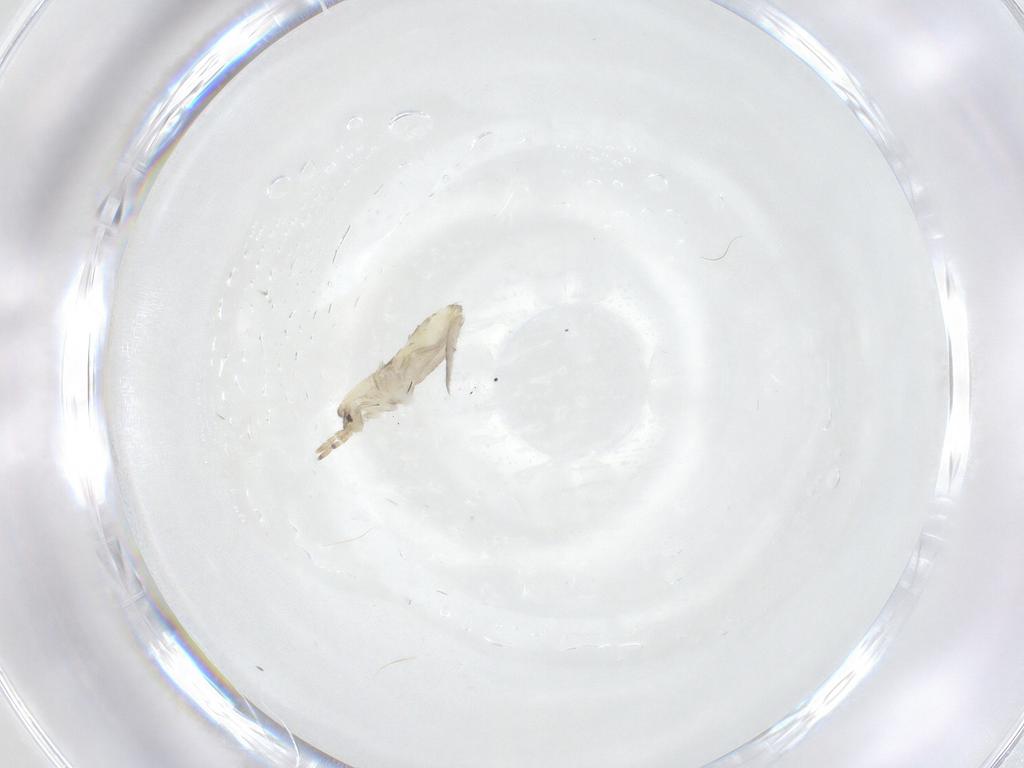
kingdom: Animalia
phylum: Arthropoda
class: Collembola
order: Entomobryomorpha
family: Entomobryidae
